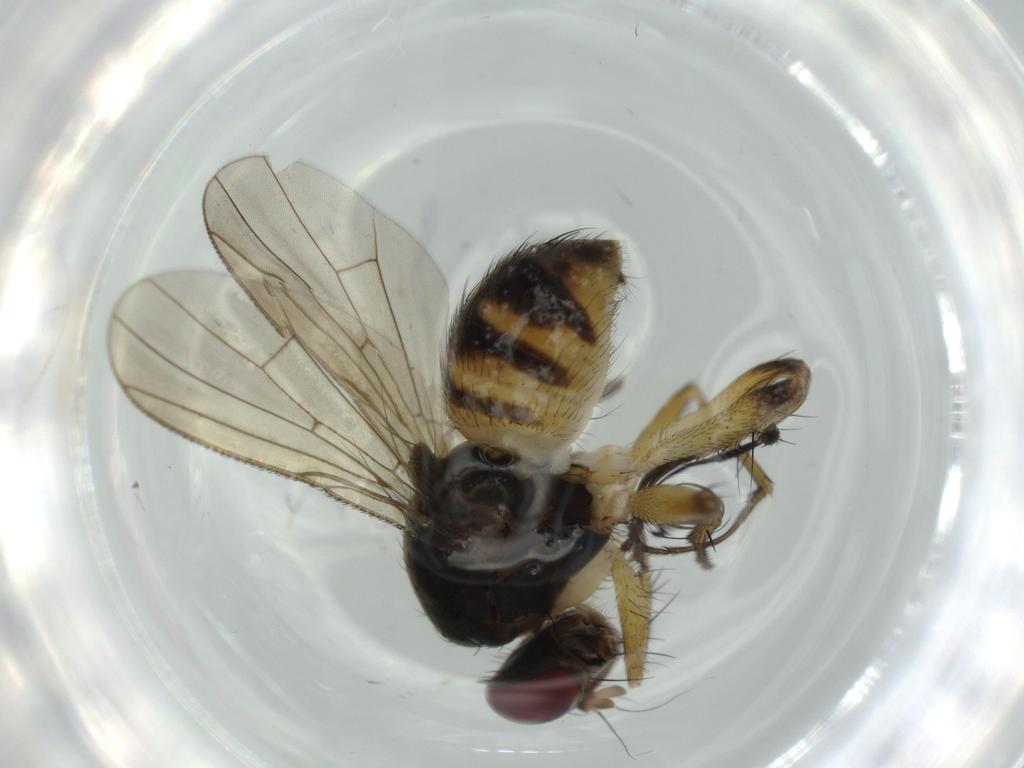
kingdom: Animalia
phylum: Arthropoda
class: Insecta
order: Diptera
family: Milichiidae
